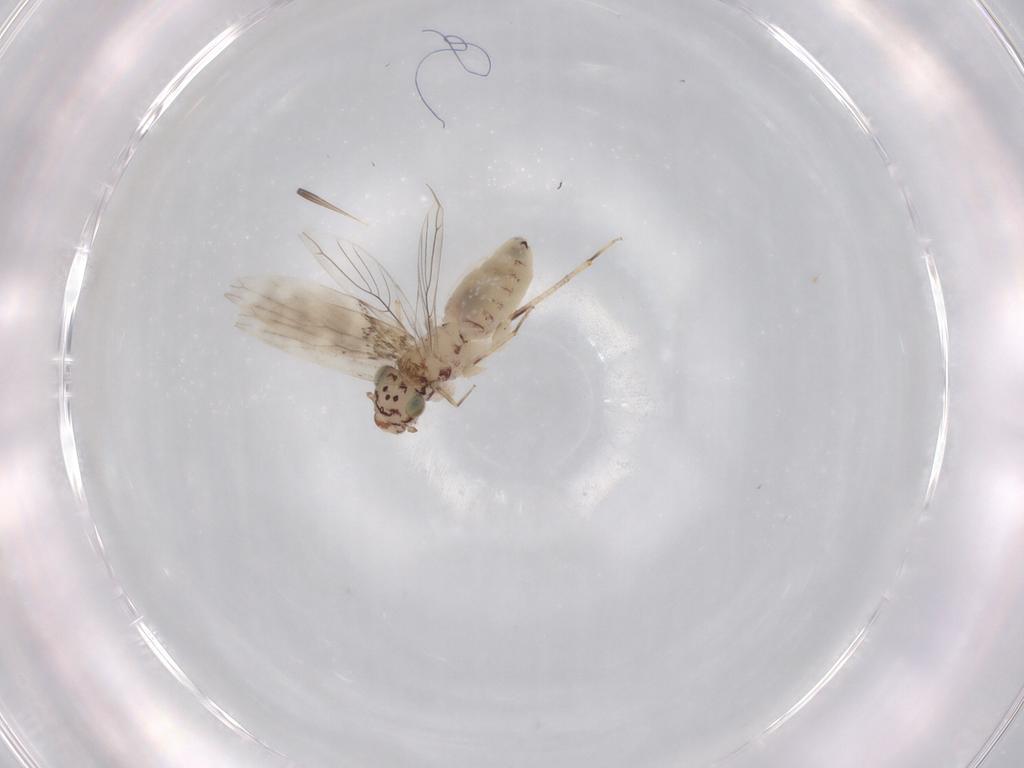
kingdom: Animalia
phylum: Arthropoda
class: Insecta
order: Psocodea
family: Lepidopsocidae
